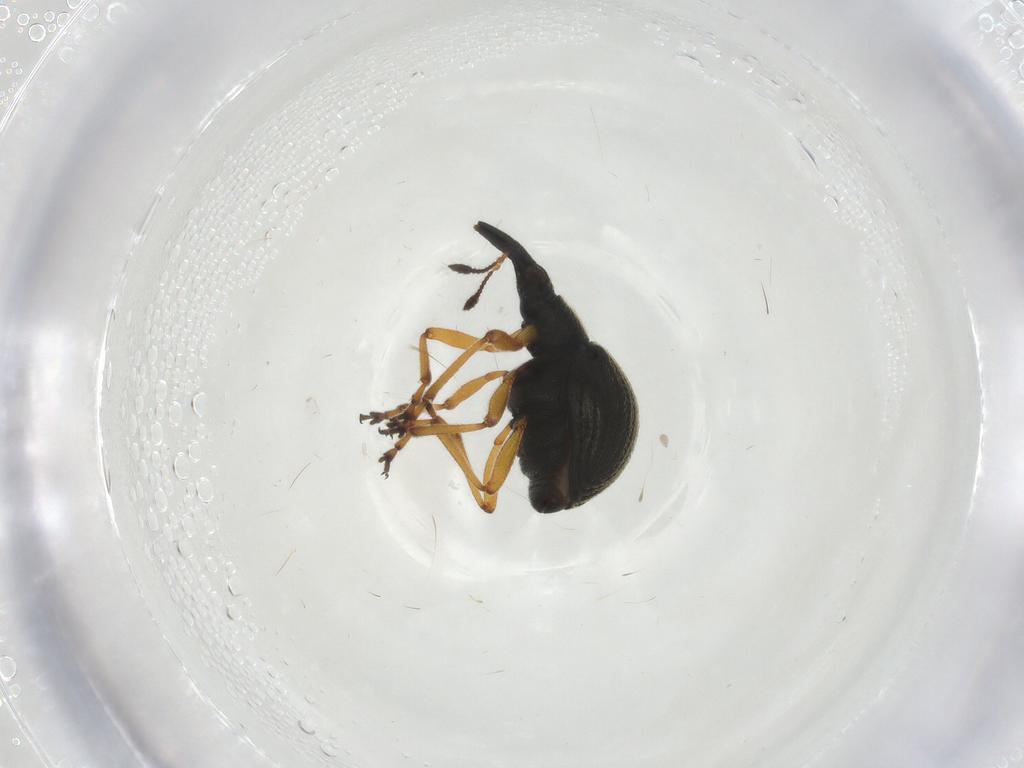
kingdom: Animalia
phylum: Arthropoda
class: Insecta
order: Coleoptera
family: Brentidae
